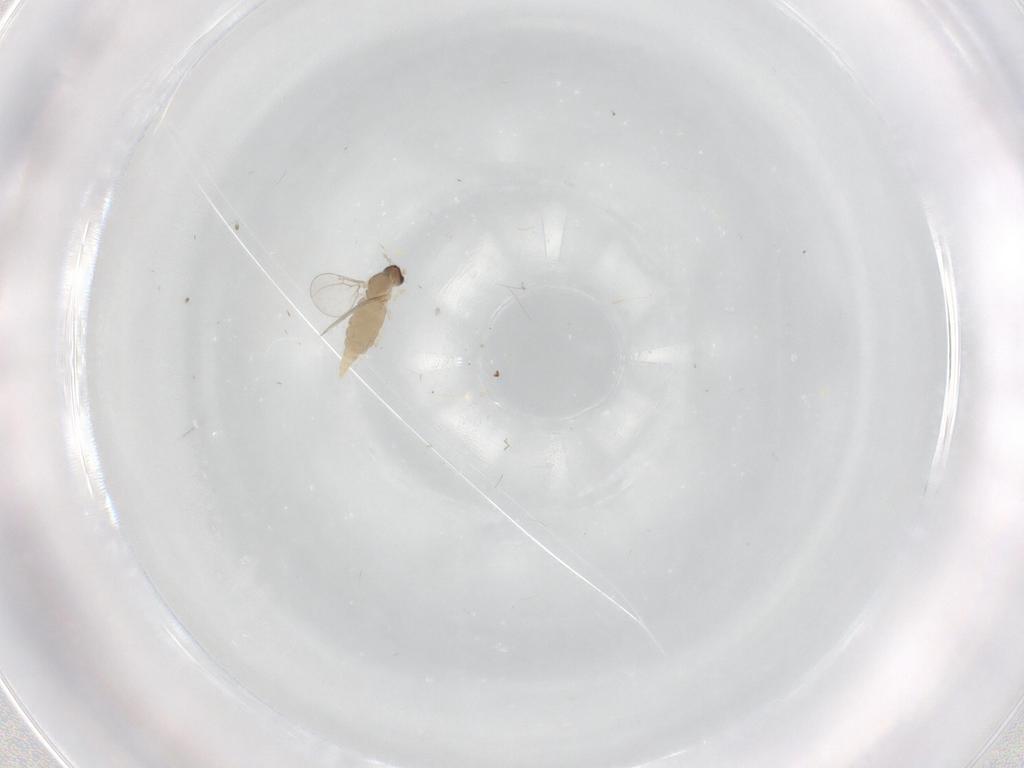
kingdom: Animalia
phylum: Arthropoda
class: Insecta
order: Diptera
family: Cecidomyiidae
